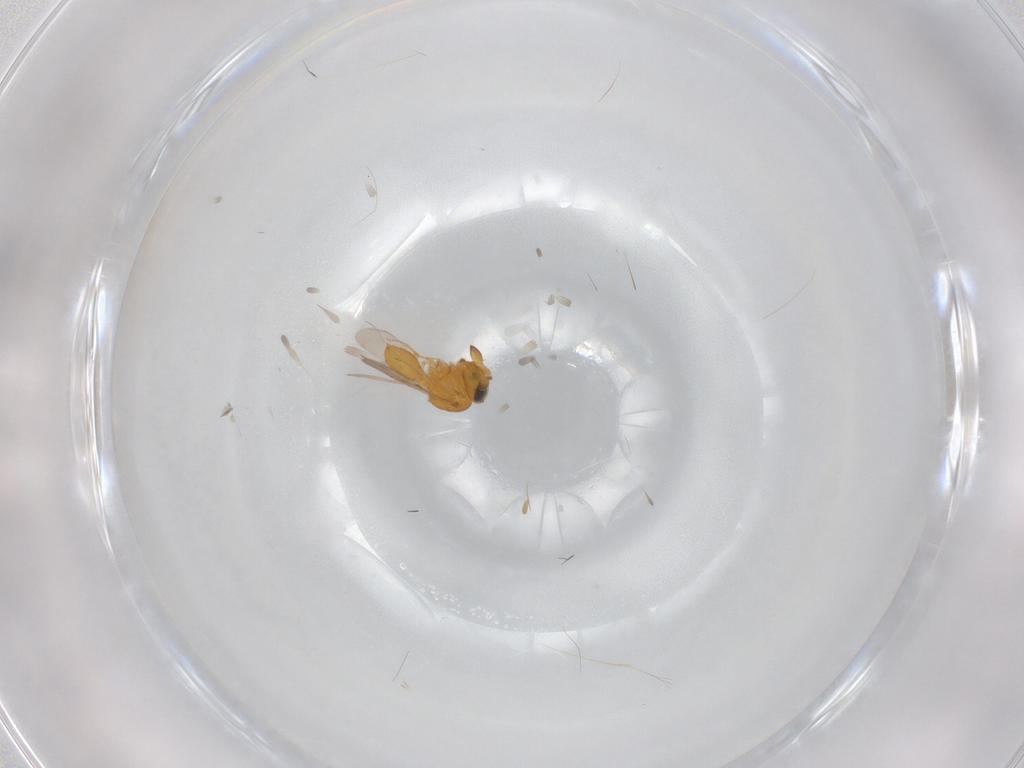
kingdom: Animalia
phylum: Arthropoda
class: Insecta
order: Hymenoptera
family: Scelionidae
